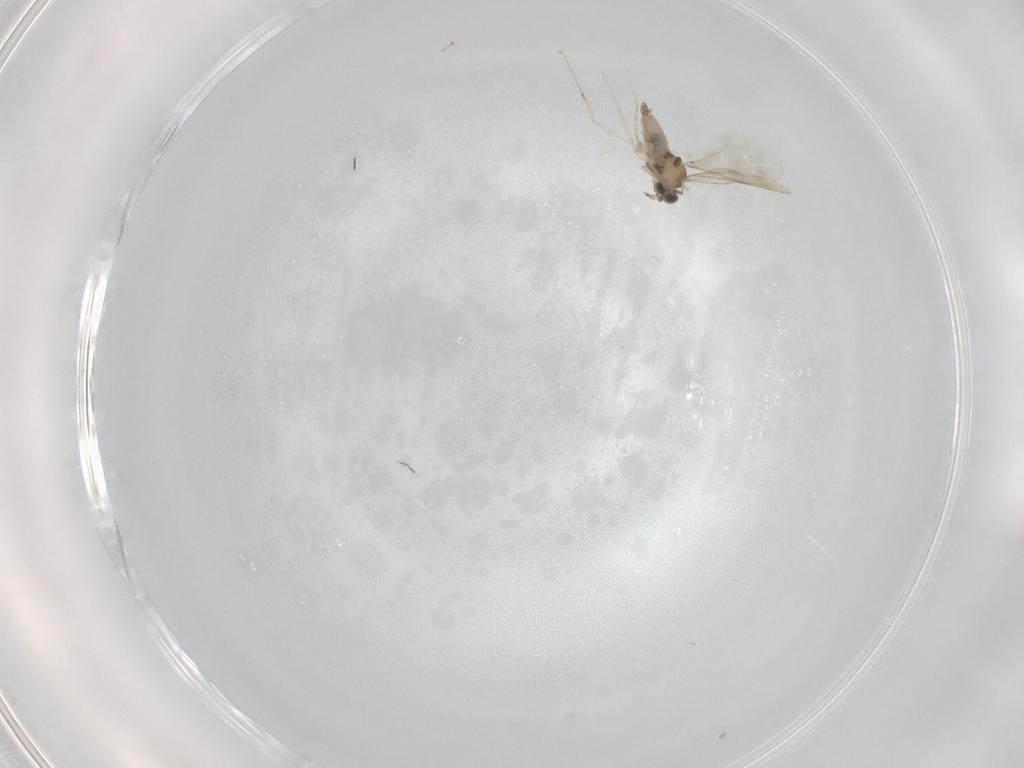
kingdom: Animalia
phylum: Arthropoda
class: Insecta
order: Diptera
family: Cecidomyiidae
